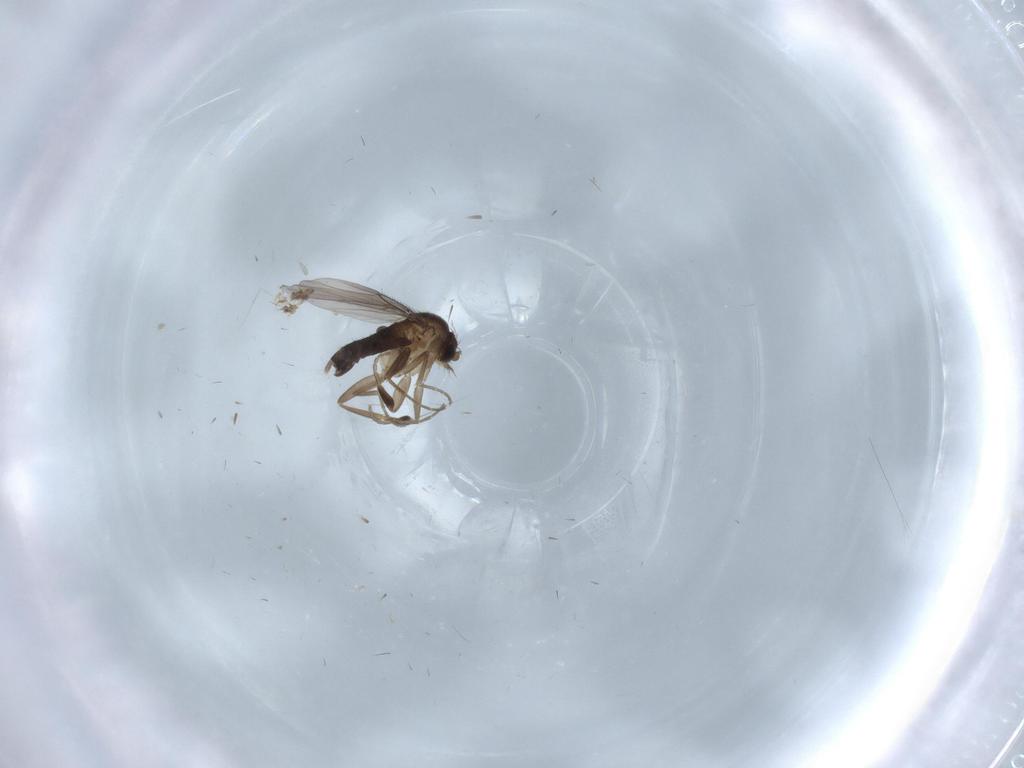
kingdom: Animalia
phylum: Arthropoda
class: Insecta
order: Diptera
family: Phoridae
